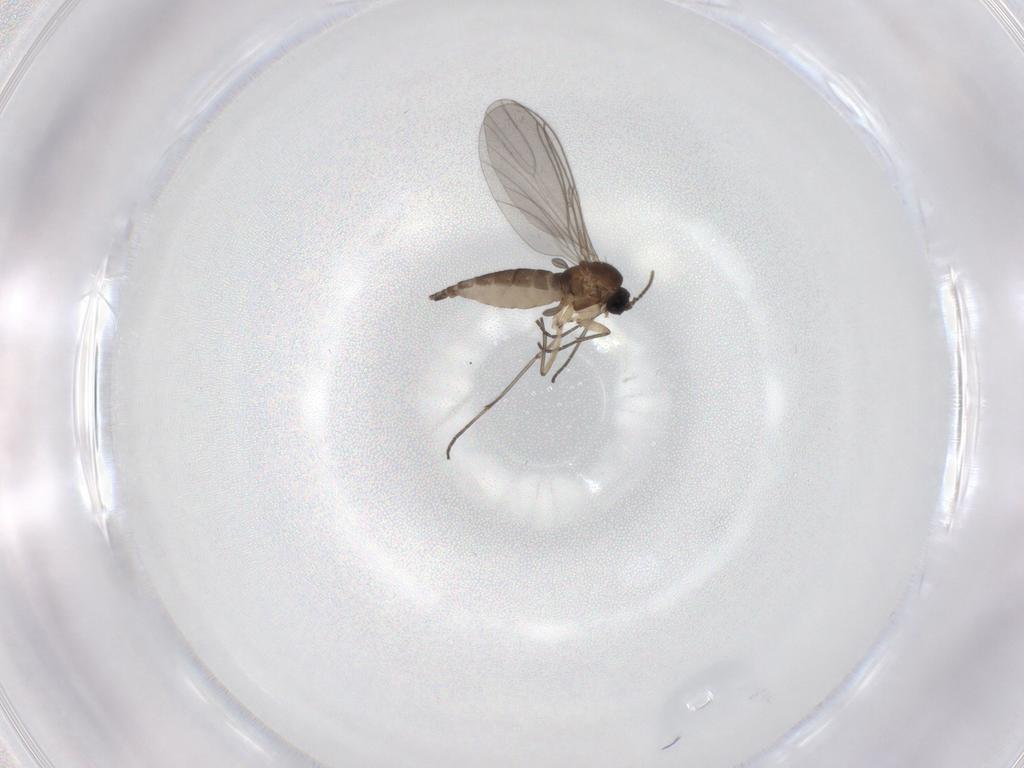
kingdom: Animalia
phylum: Arthropoda
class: Insecta
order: Diptera
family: Sciaridae
